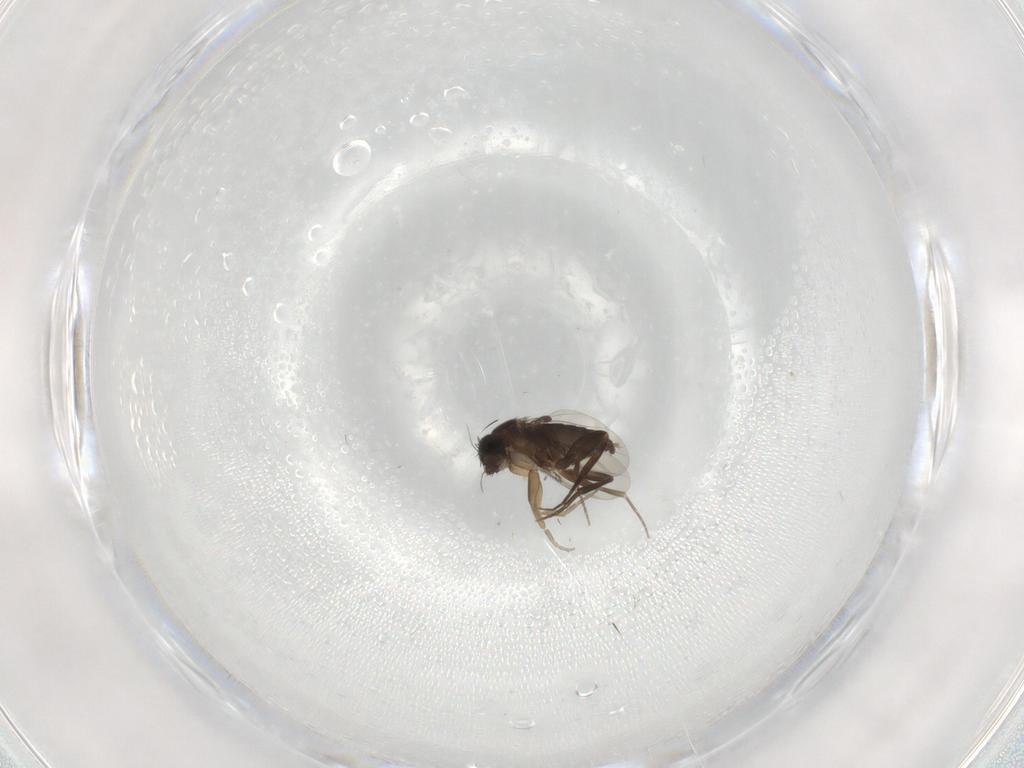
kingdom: Animalia
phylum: Arthropoda
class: Insecta
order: Diptera
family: Phoridae
